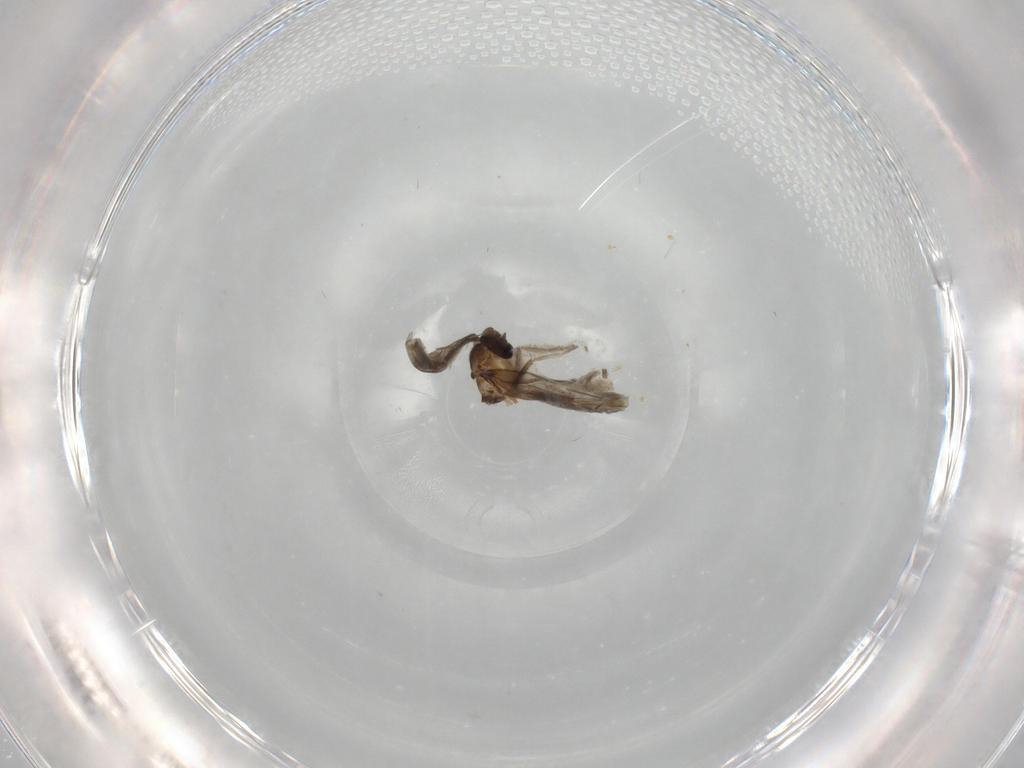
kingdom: Animalia
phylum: Arthropoda
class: Insecta
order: Diptera
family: Phoridae
